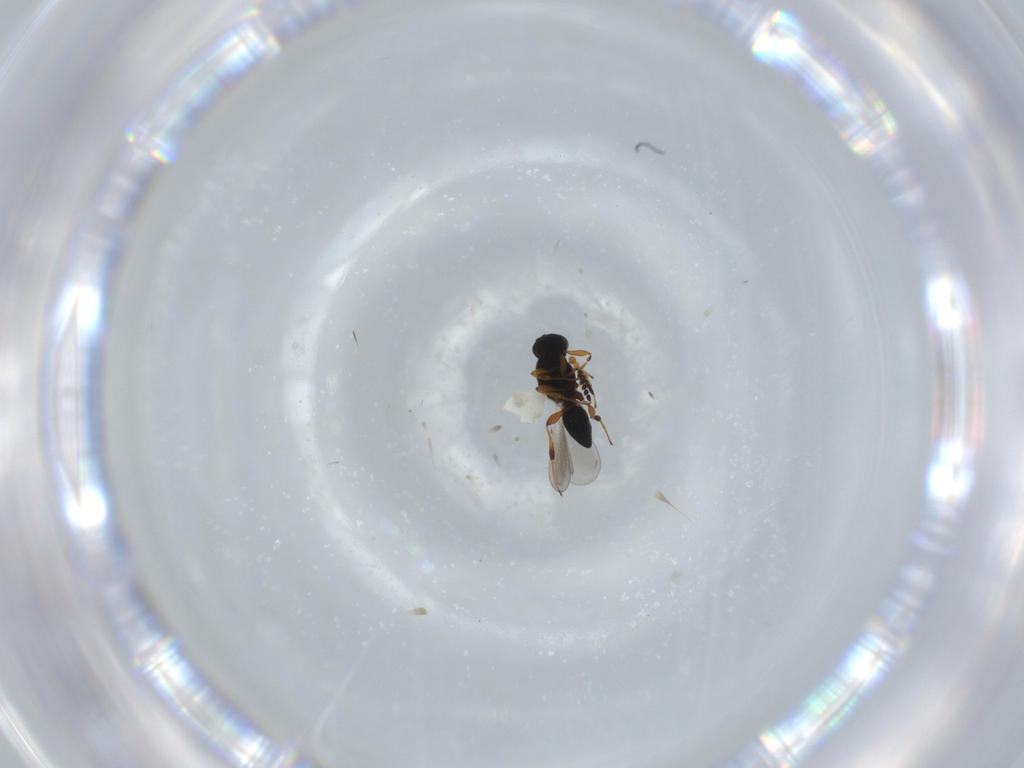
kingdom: Animalia
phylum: Arthropoda
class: Insecta
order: Hymenoptera
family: Platygastridae
